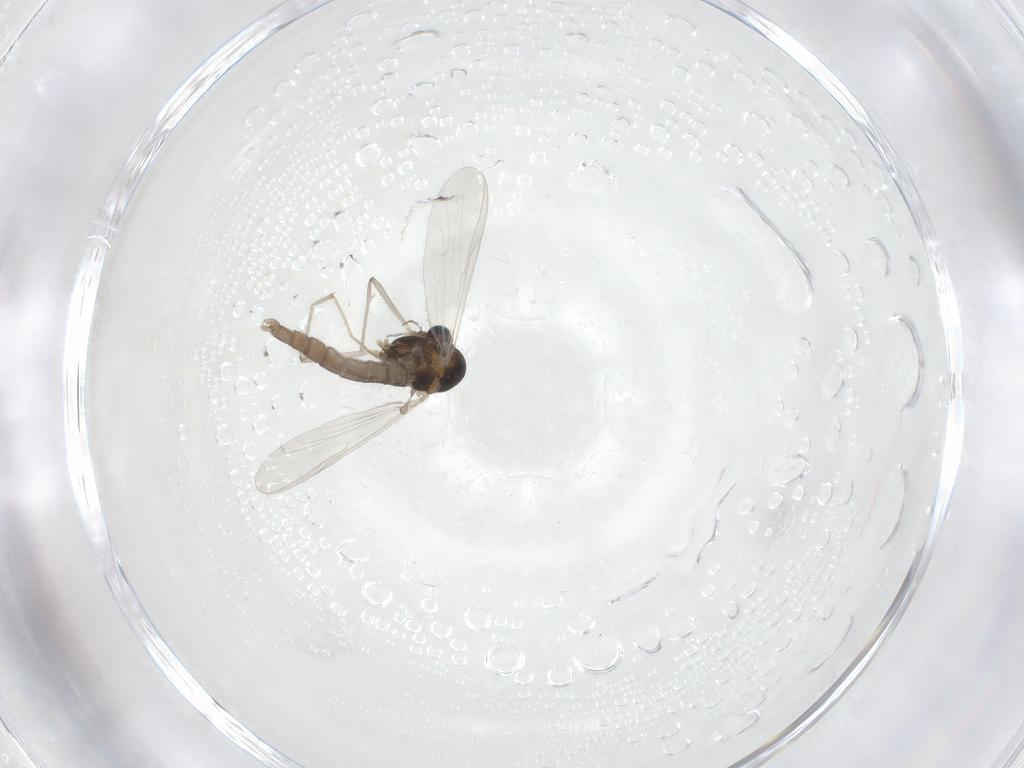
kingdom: Animalia
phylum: Arthropoda
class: Insecta
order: Diptera
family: Chironomidae
